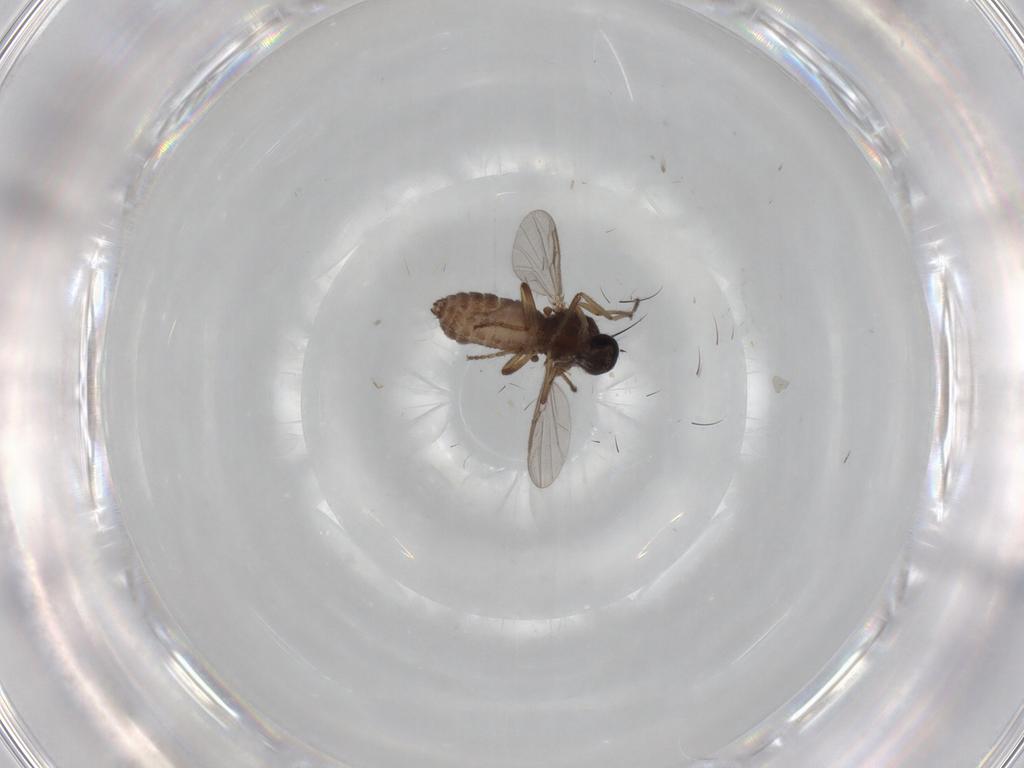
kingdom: Animalia
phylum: Arthropoda
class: Insecta
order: Diptera
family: Ceratopogonidae
